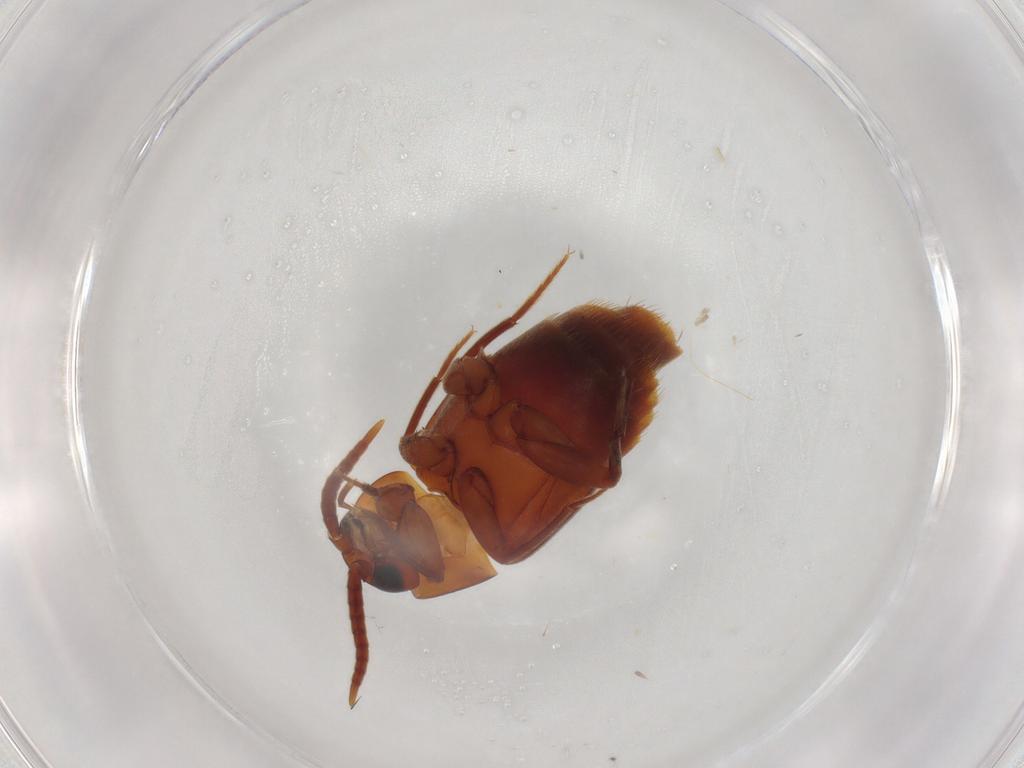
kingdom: Animalia
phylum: Arthropoda
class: Insecta
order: Coleoptera
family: Scarabaeidae
